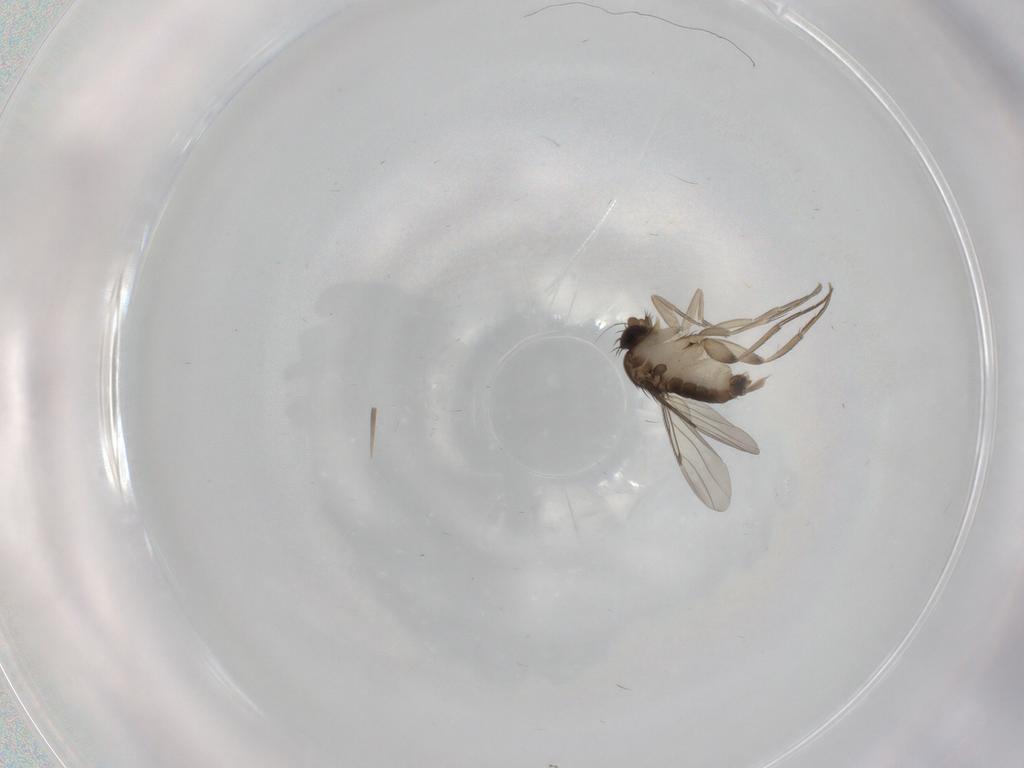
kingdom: Animalia
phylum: Arthropoda
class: Insecta
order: Diptera
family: Phoridae
